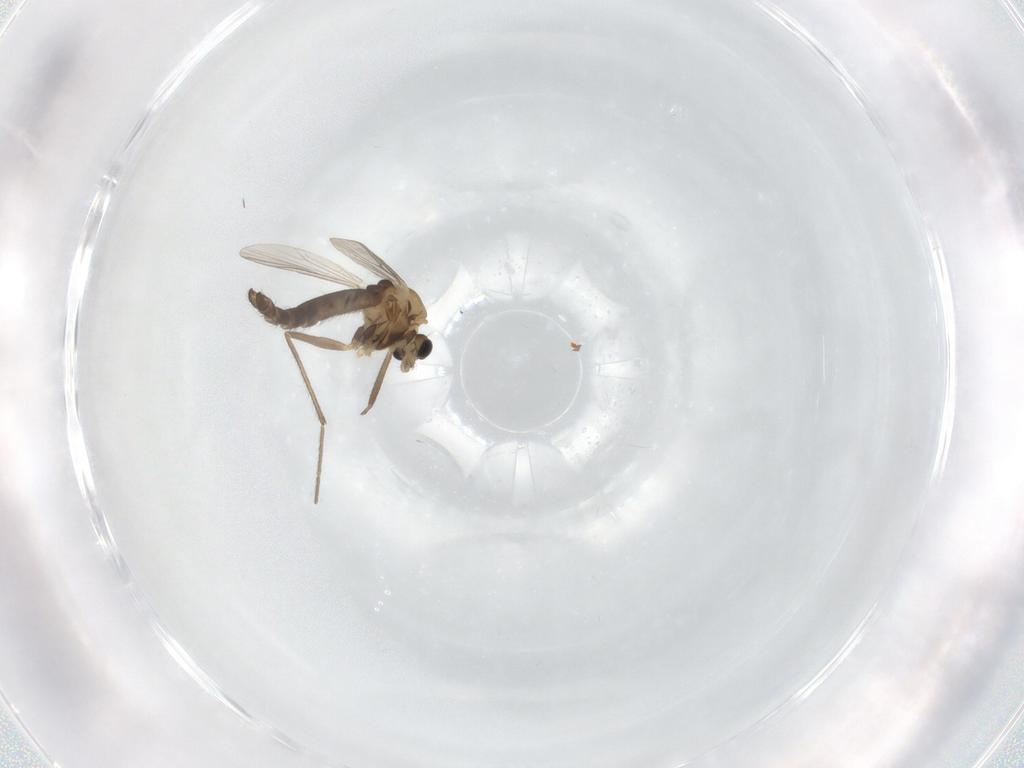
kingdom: Animalia
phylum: Arthropoda
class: Insecta
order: Diptera
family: Chironomidae
